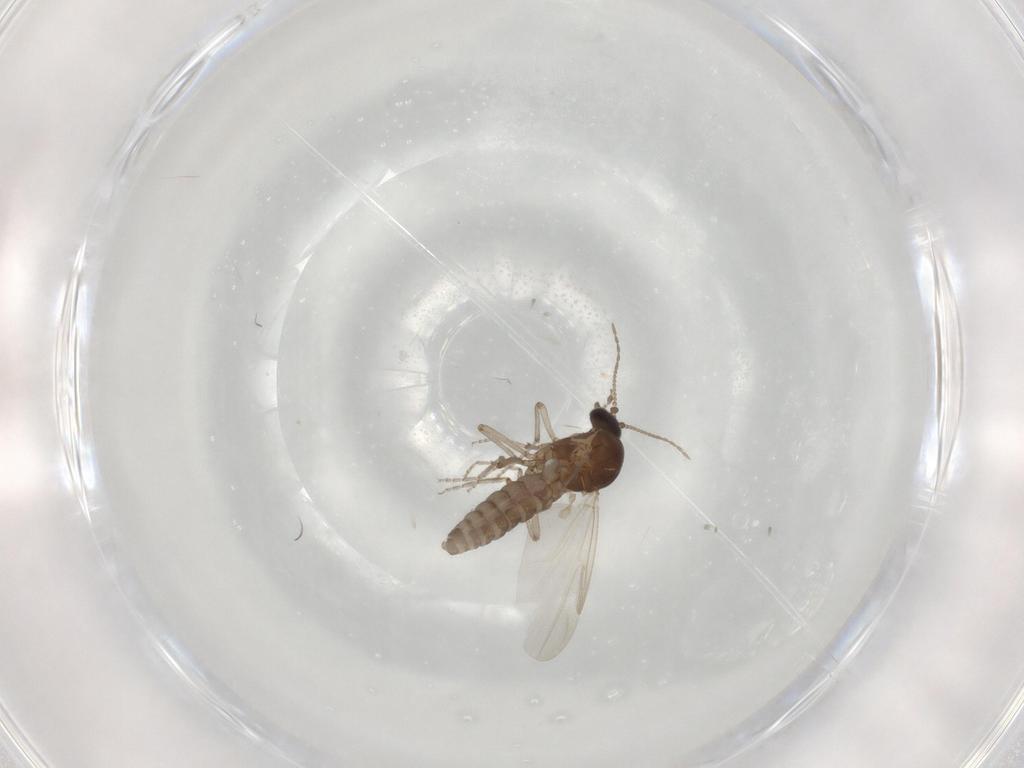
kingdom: Animalia
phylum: Arthropoda
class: Insecta
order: Diptera
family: Ceratopogonidae
